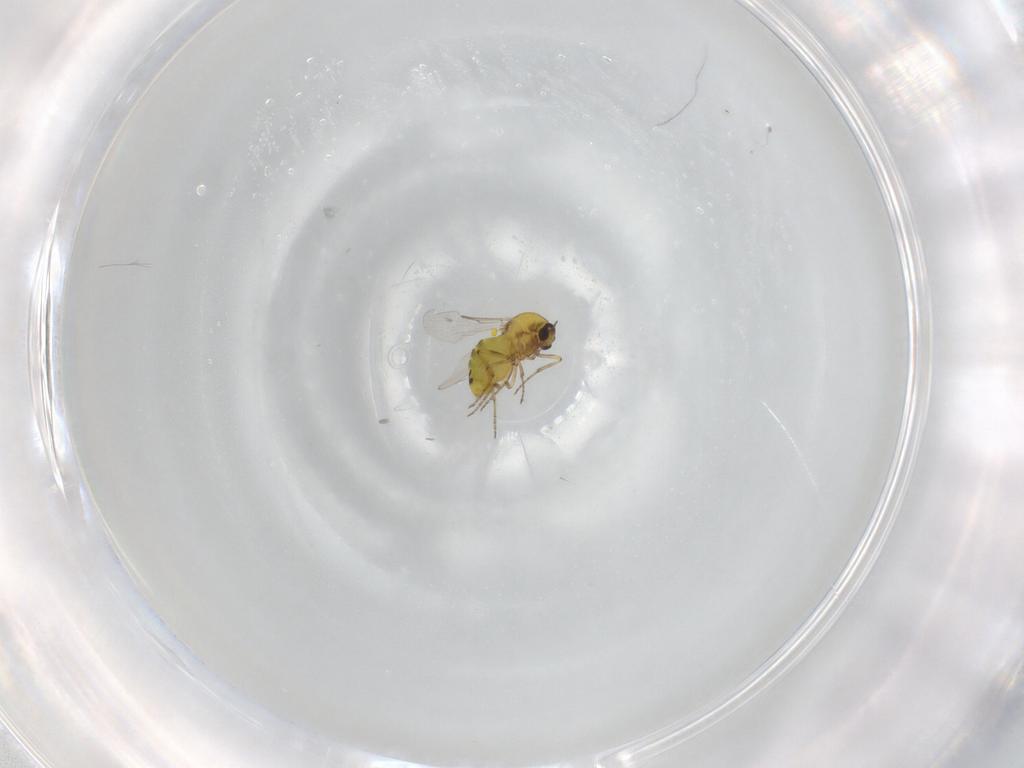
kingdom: Animalia
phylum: Arthropoda
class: Insecta
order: Diptera
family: Ceratopogonidae
